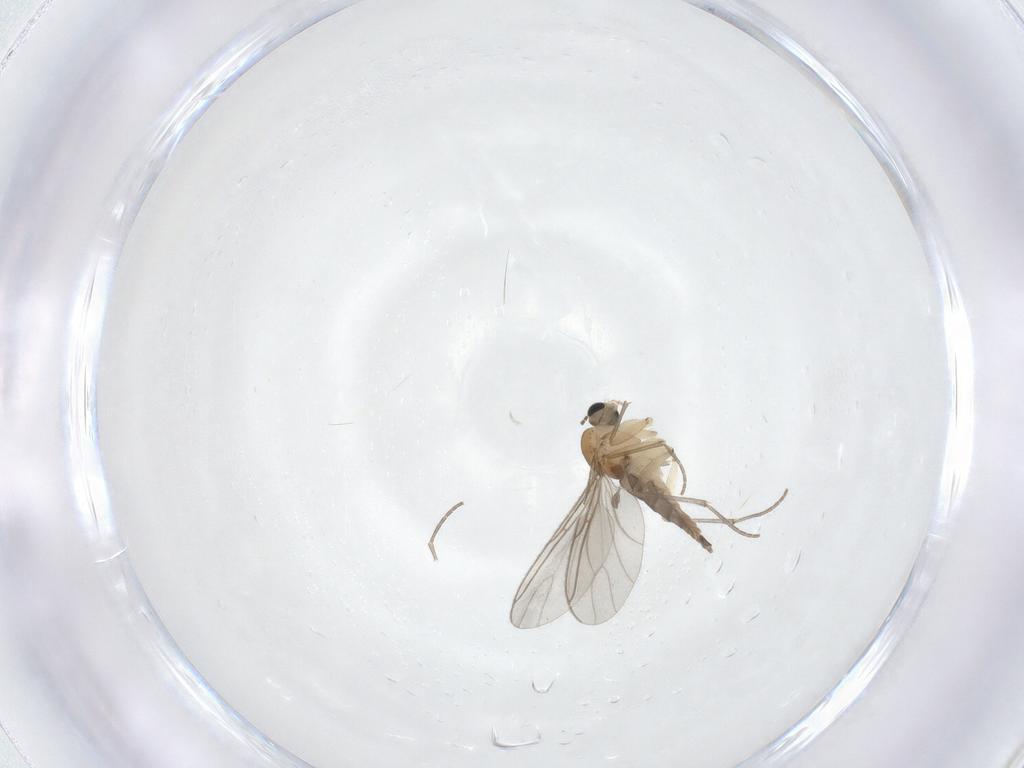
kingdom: Animalia
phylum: Arthropoda
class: Insecta
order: Diptera
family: Sciaridae
